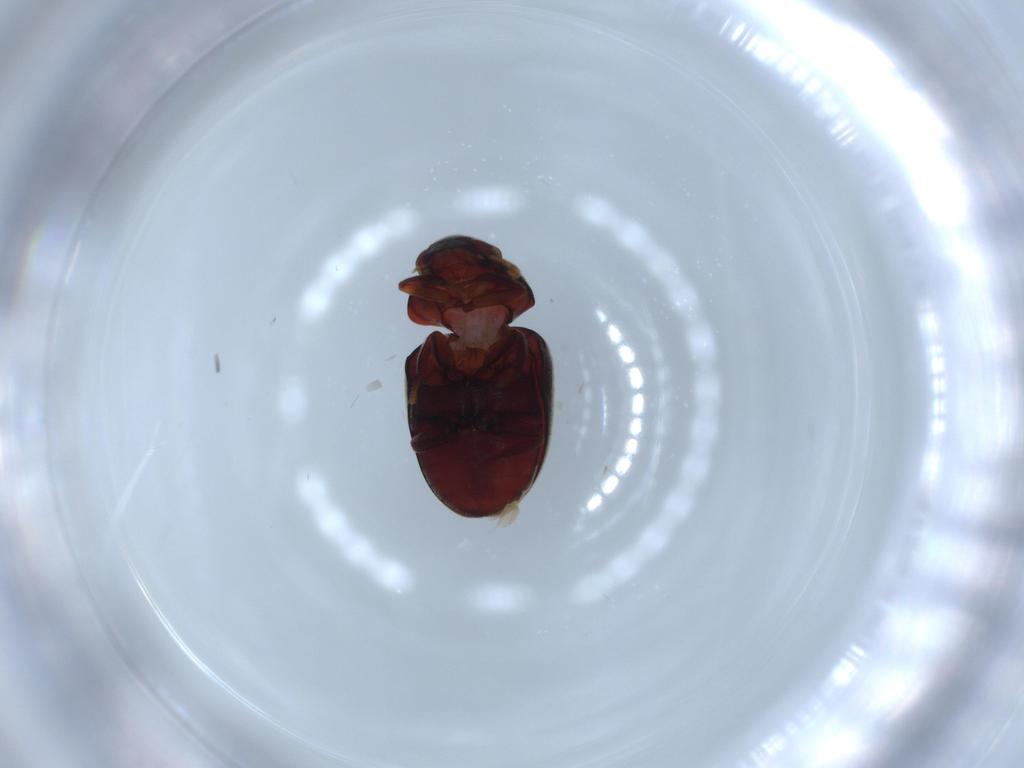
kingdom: Animalia
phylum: Arthropoda
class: Insecta
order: Coleoptera
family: Ptinidae
